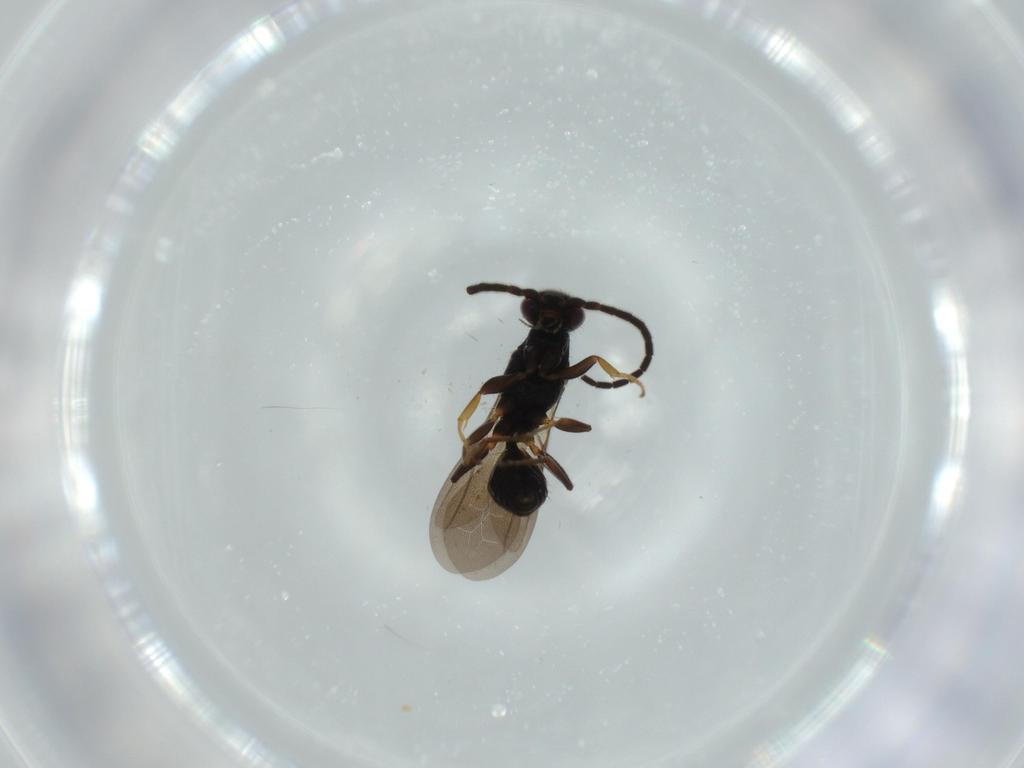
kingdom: Animalia
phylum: Arthropoda
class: Insecta
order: Hymenoptera
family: Bethylidae
